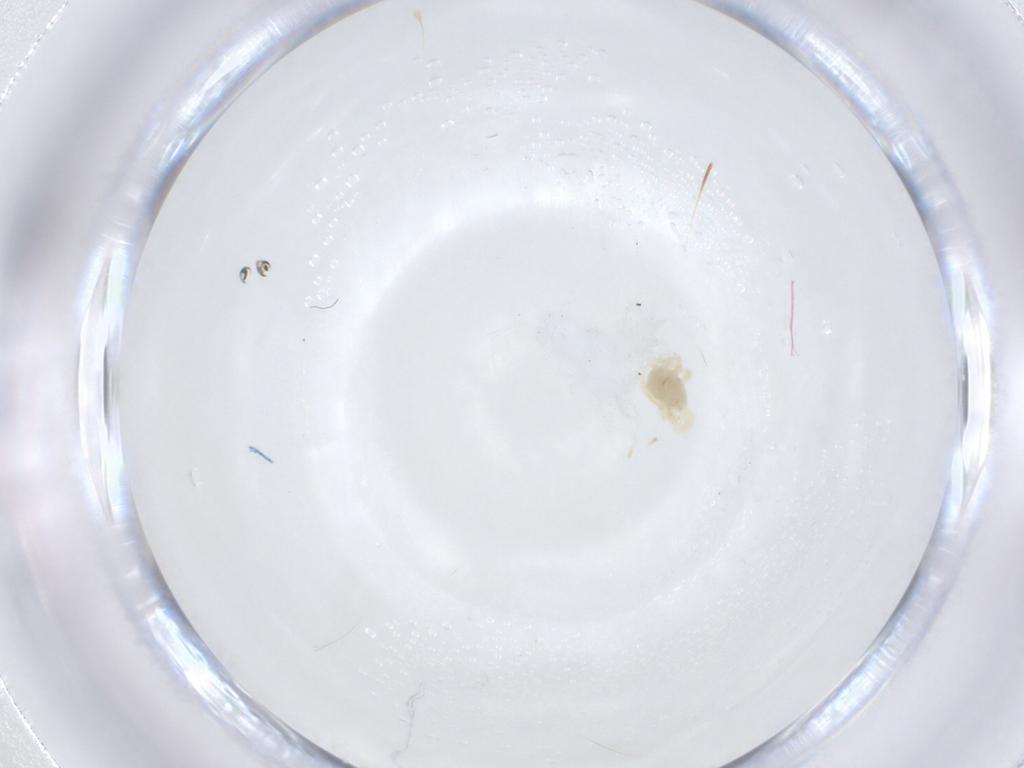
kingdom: Animalia
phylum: Arthropoda
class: Arachnida
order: Trombidiformes
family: Anystidae
